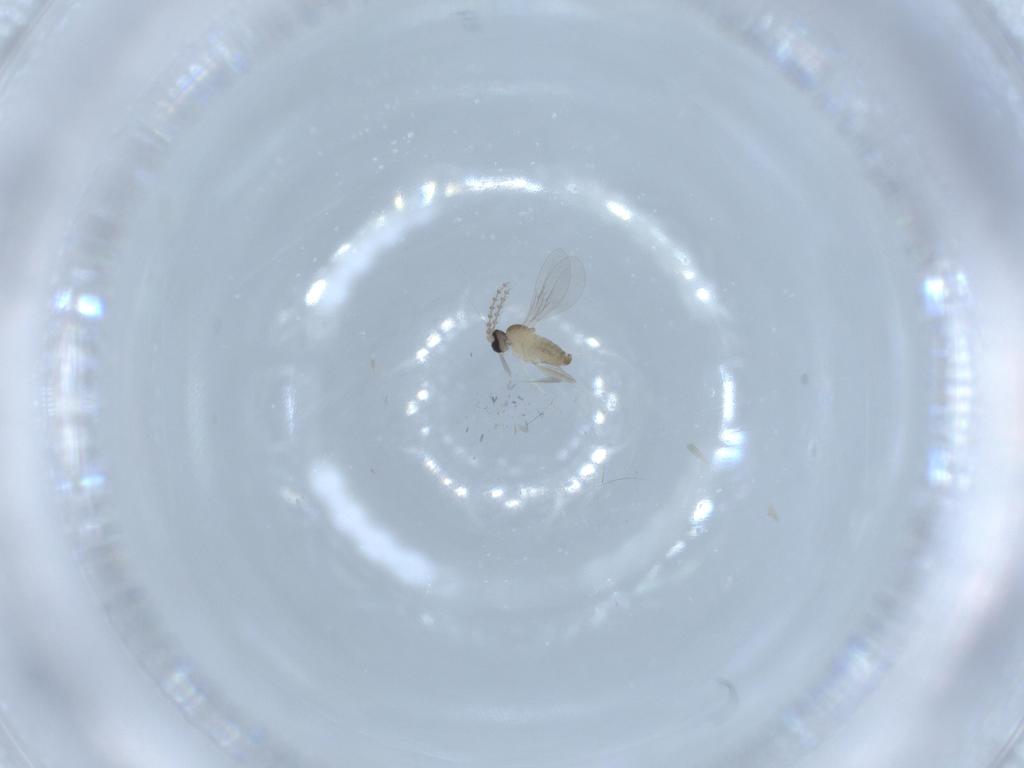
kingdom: Animalia
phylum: Arthropoda
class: Insecta
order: Diptera
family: Cecidomyiidae
